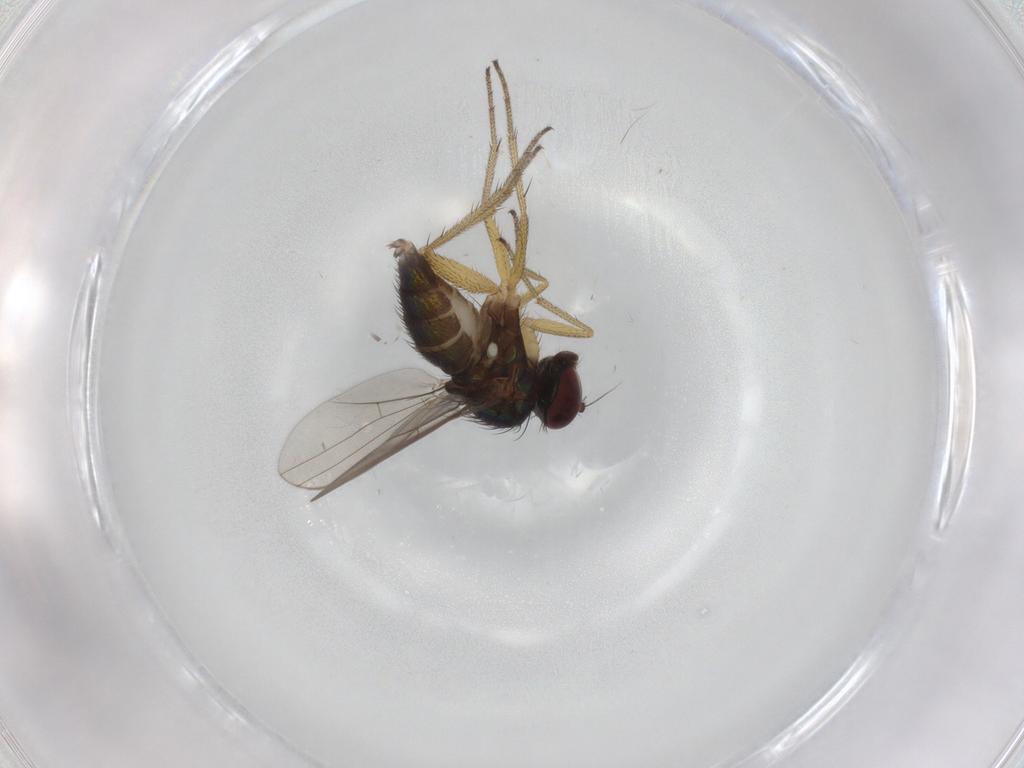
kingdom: Animalia
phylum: Arthropoda
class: Insecta
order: Diptera
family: Dolichopodidae
